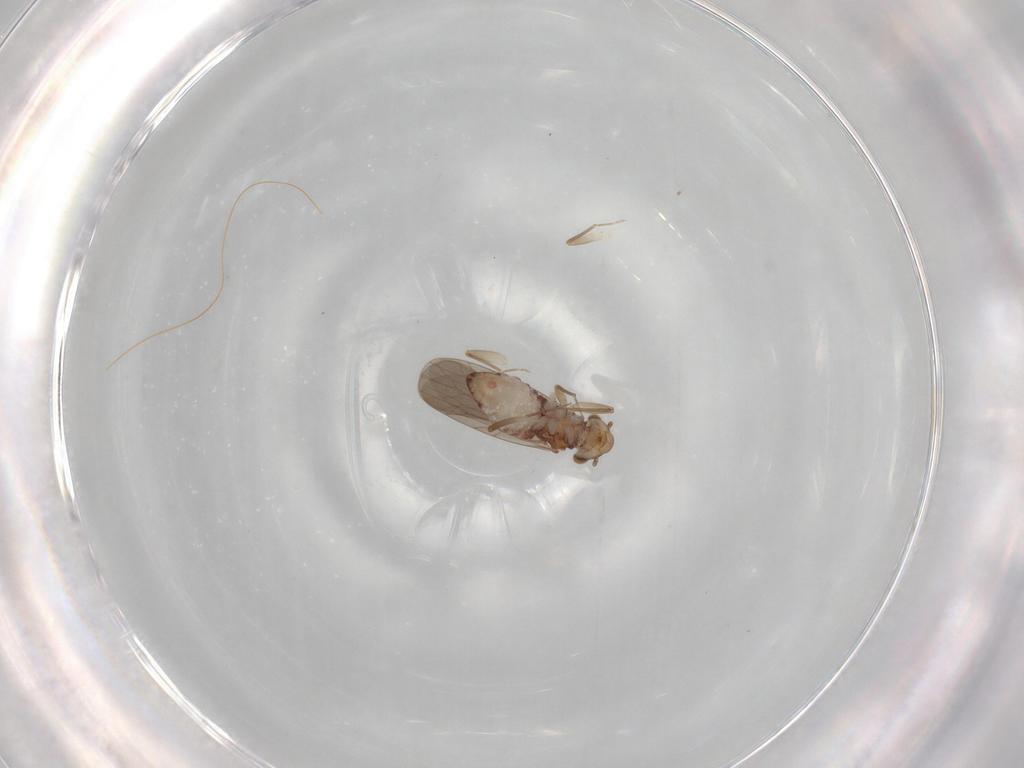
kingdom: Animalia
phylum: Arthropoda
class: Insecta
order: Psocodea
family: Lepidopsocidae
